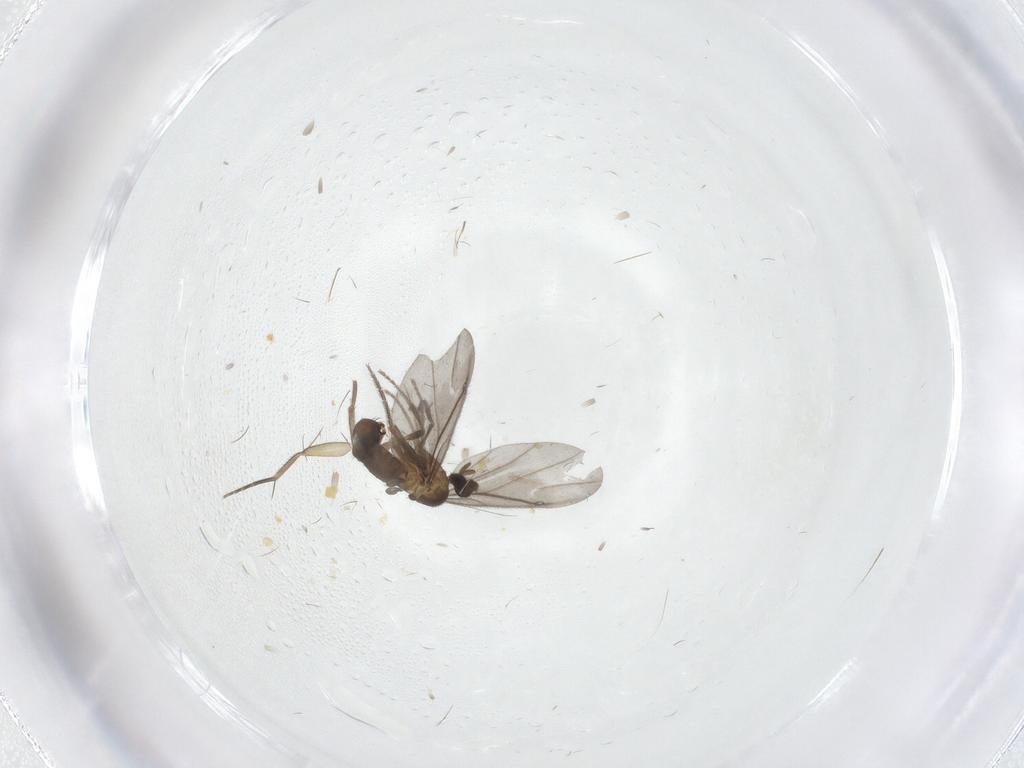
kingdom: Animalia
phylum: Arthropoda
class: Insecta
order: Diptera
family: Phoridae
